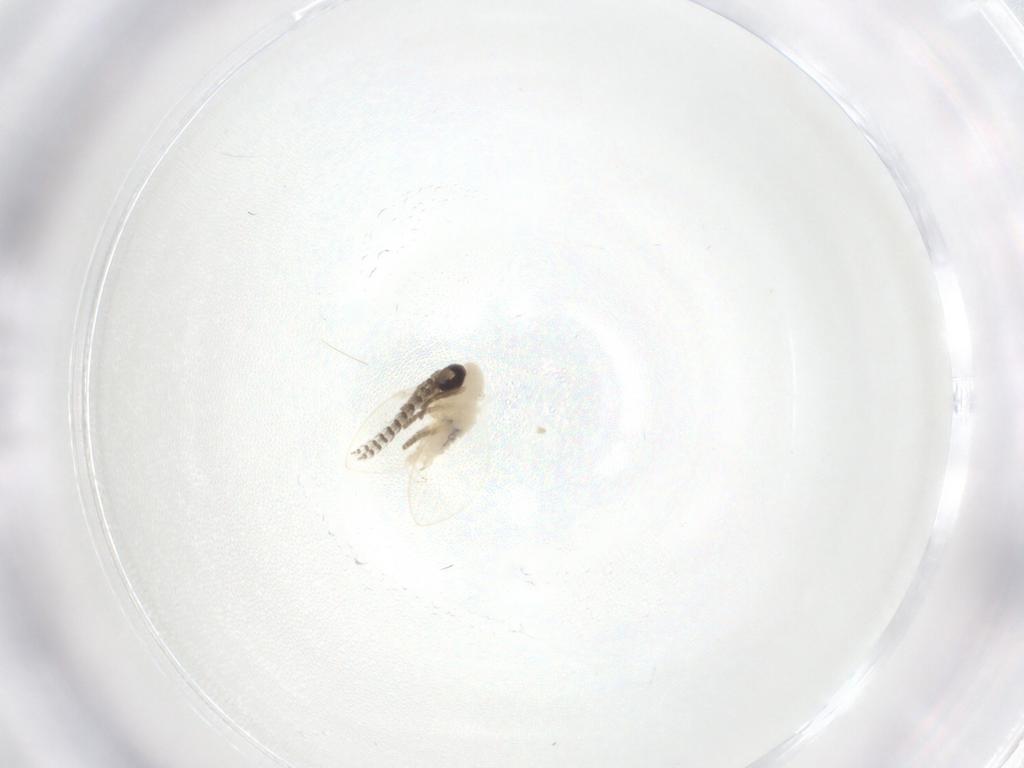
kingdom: Animalia
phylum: Arthropoda
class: Insecta
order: Diptera
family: Psychodidae
